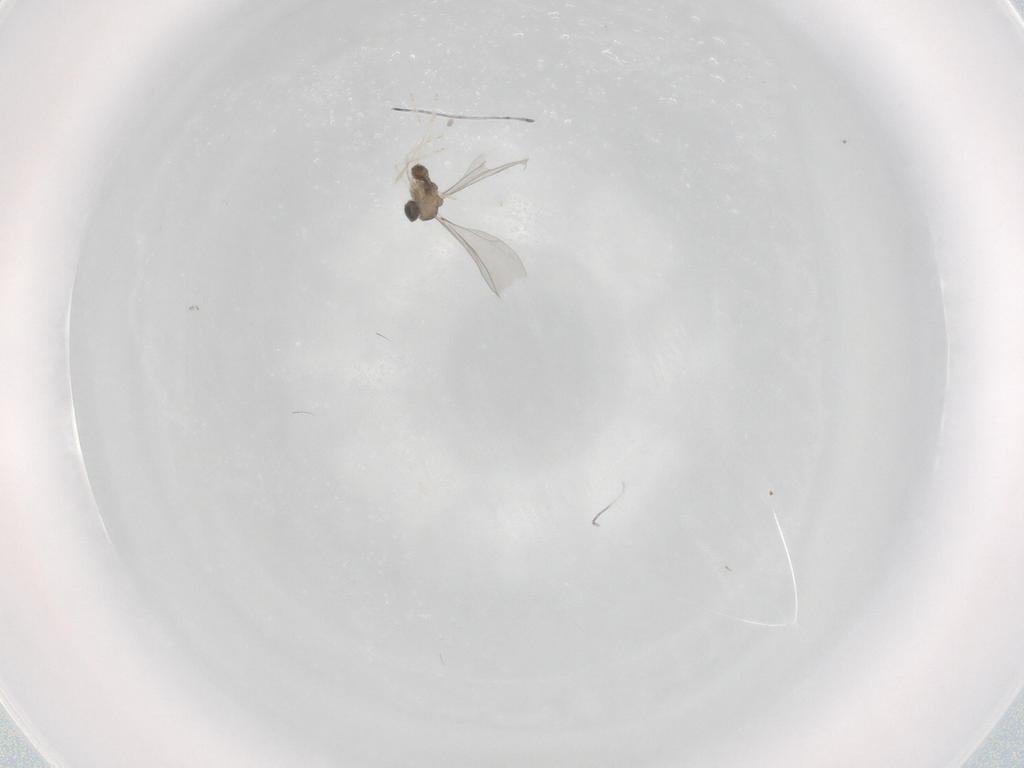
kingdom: Animalia
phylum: Arthropoda
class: Insecta
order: Diptera
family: Cecidomyiidae
